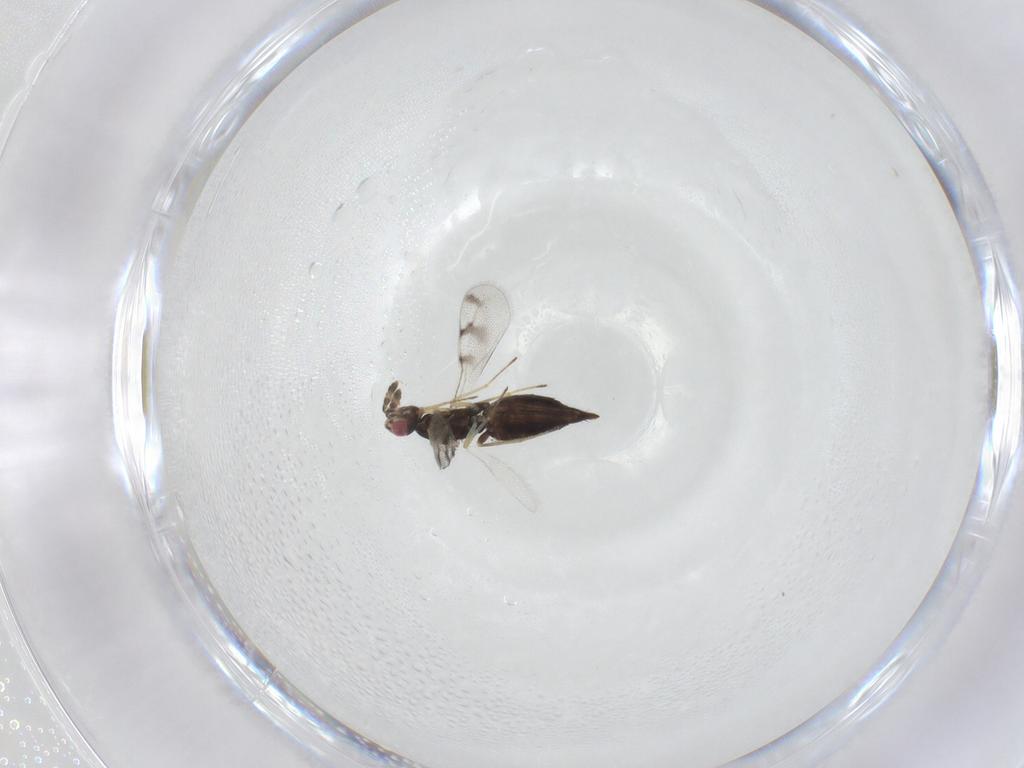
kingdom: Animalia
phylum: Arthropoda
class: Insecta
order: Hymenoptera
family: Eulophidae
